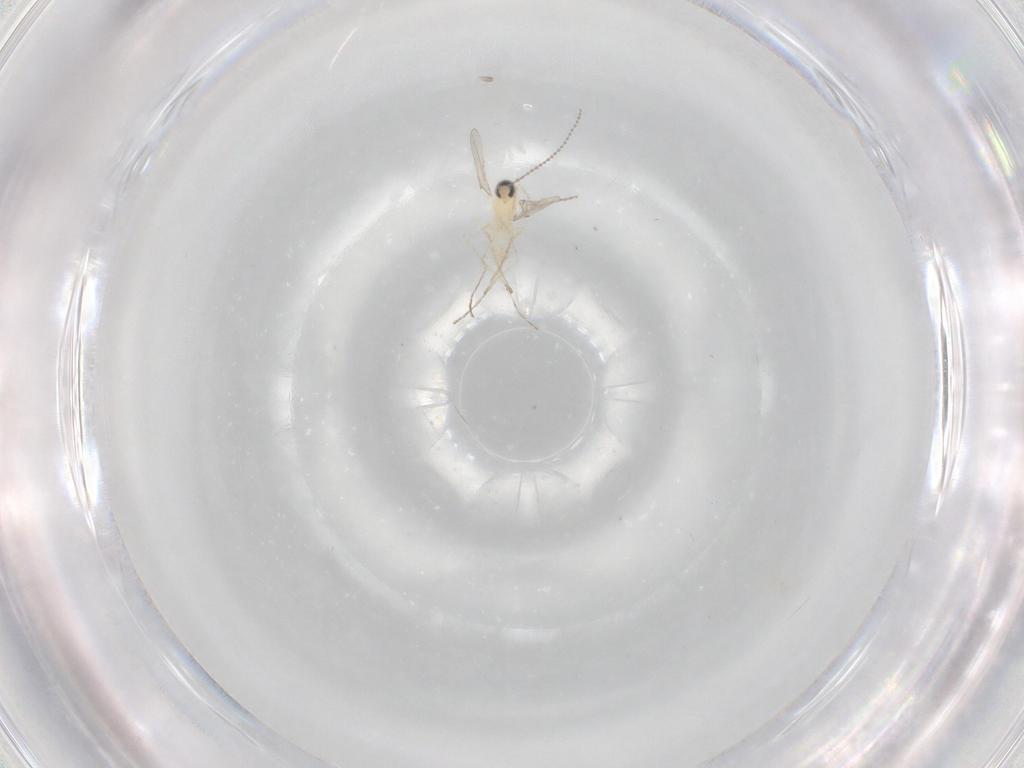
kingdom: Animalia
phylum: Arthropoda
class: Insecta
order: Diptera
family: Cecidomyiidae
